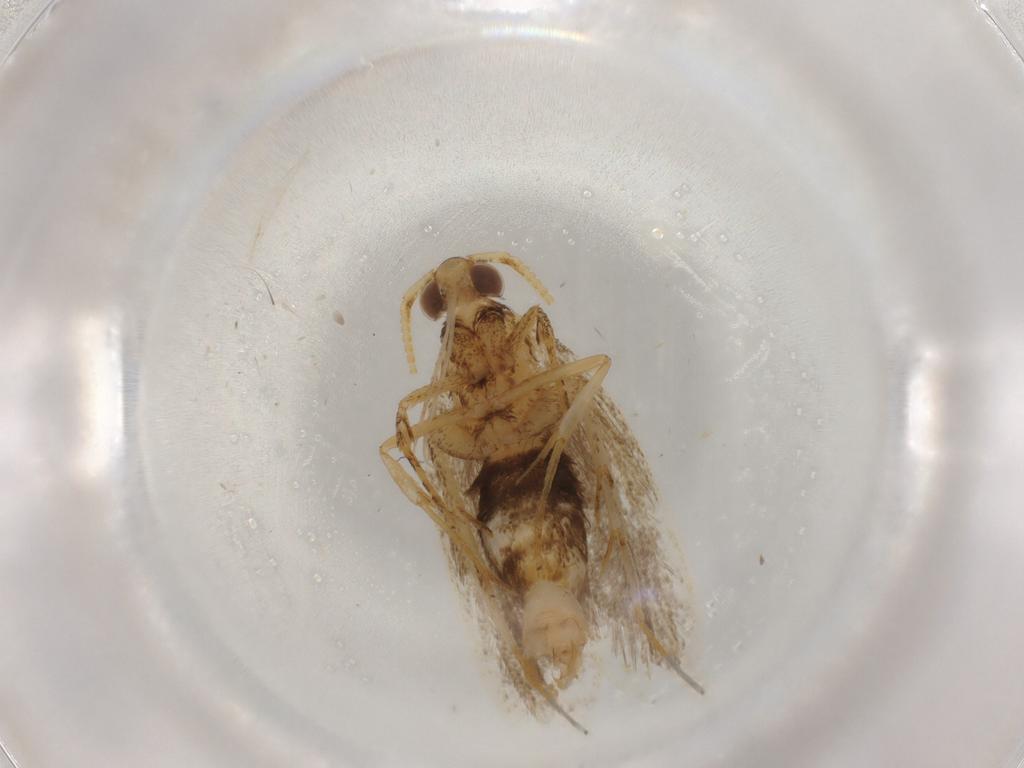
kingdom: Animalia
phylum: Arthropoda
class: Insecta
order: Lepidoptera
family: Lecithoceridae
